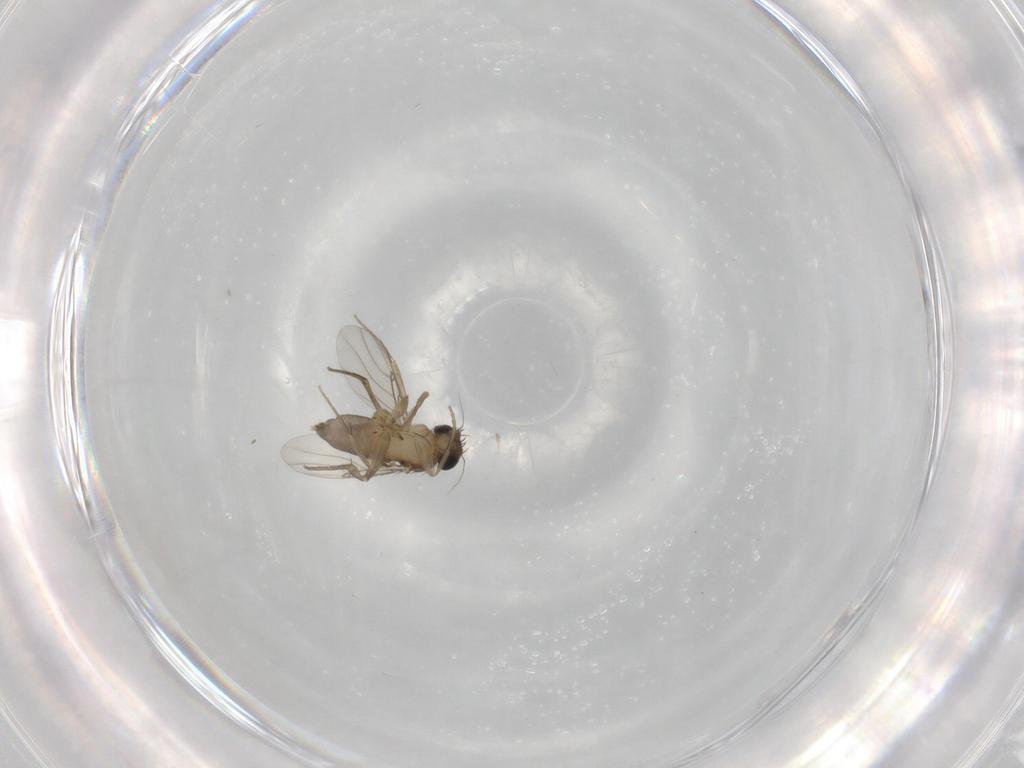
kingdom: Animalia
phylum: Arthropoda
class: Insecta
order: Diptera
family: Phoridae
